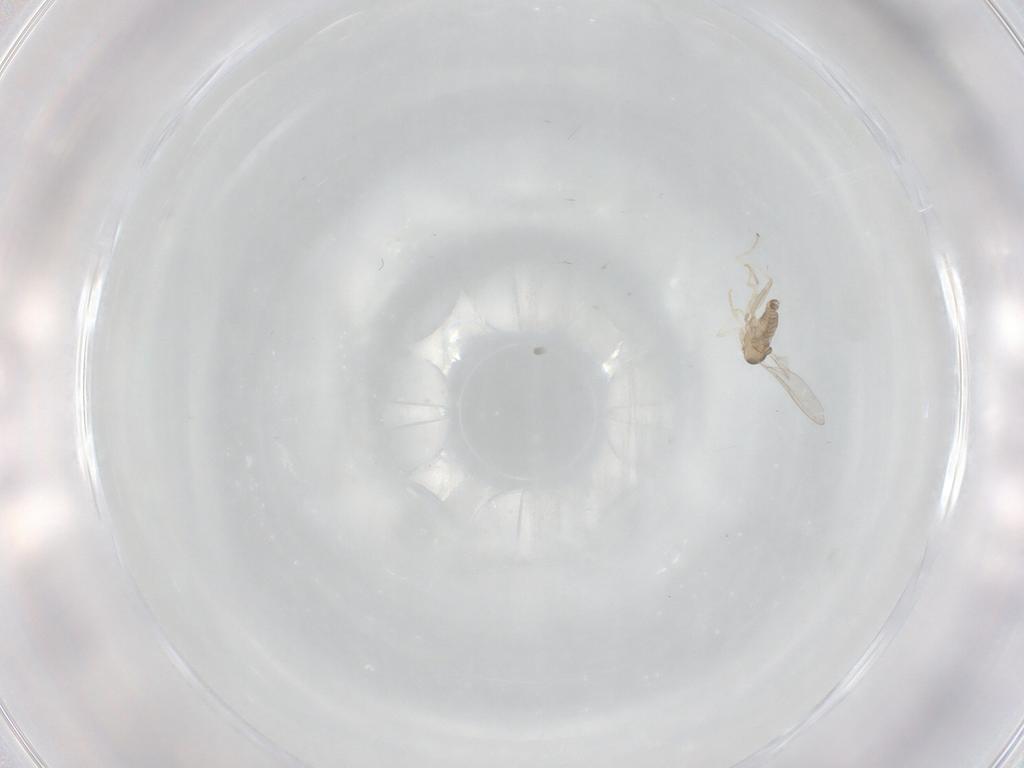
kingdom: Animalia
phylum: Arthropoda
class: Insecta
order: Diptera
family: Cecidomyiidae
